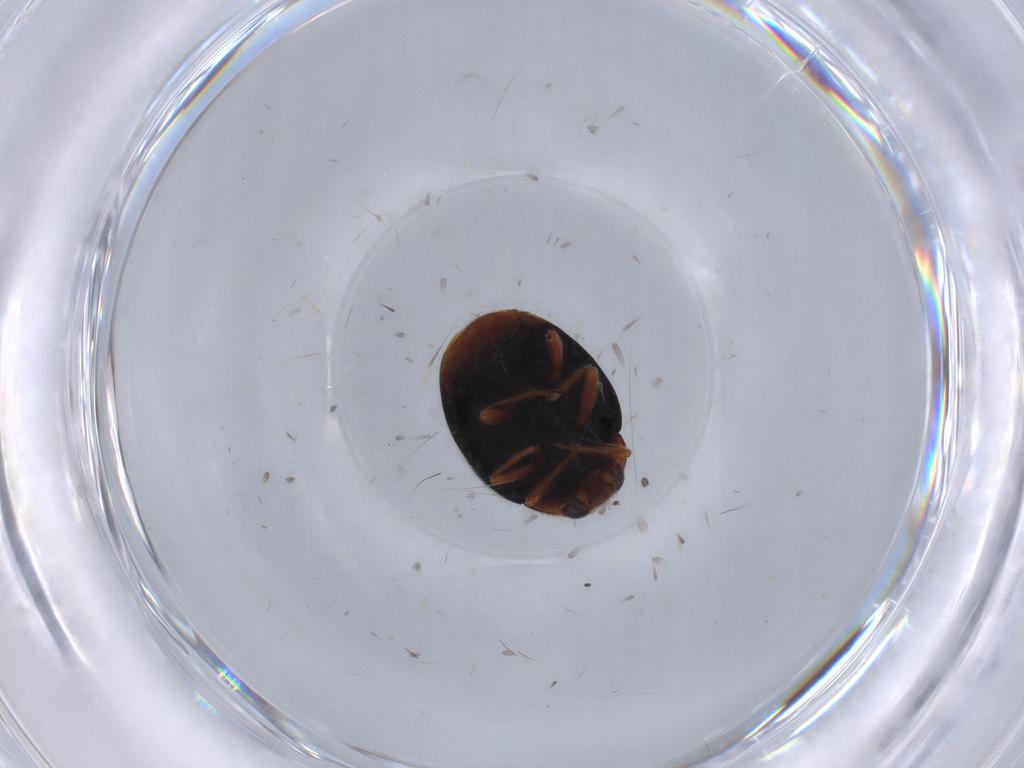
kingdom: Animalia
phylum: Arthropoda
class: Insecta
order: Coleoptera
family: Coccinellidae
